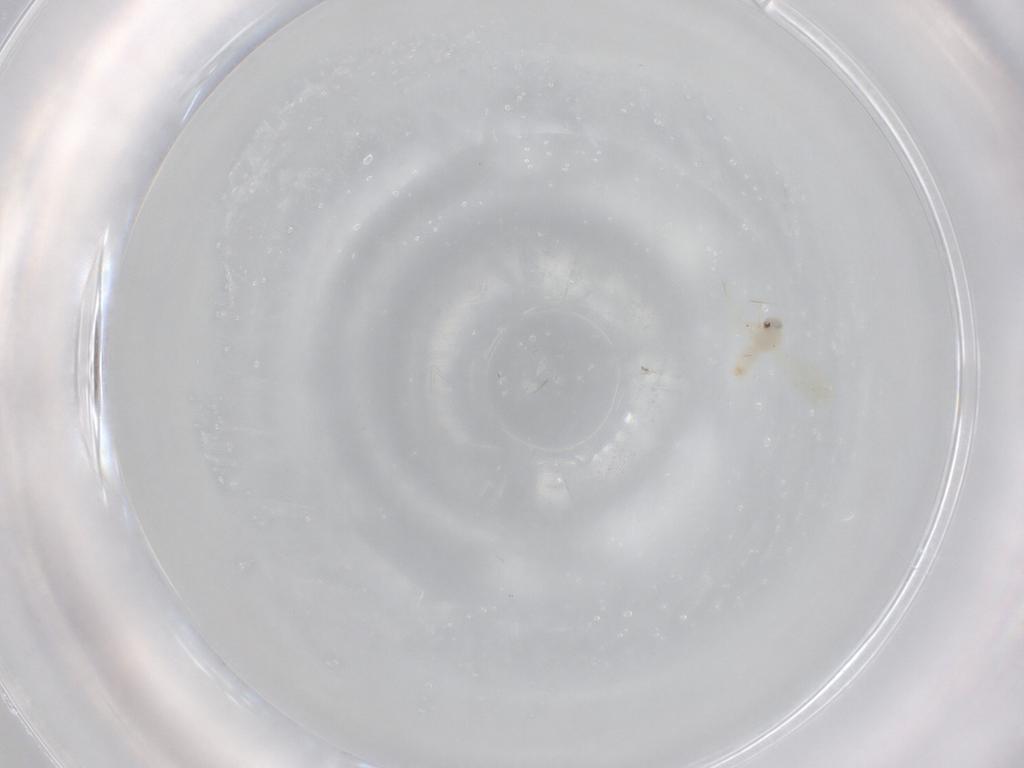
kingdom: Animalia
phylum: Arthropoda
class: Insecta
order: Hemiptera
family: Aleyrodidae
